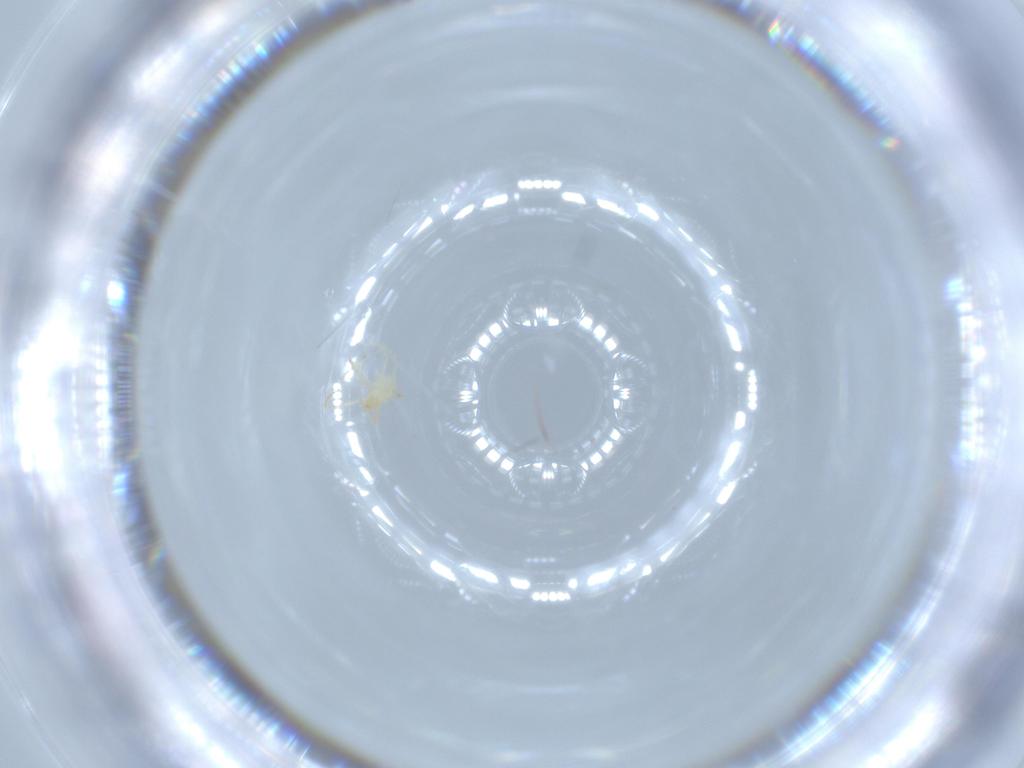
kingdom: Animalia
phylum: Arthropoda
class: Arachnida
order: Trombidiformes
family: Erythraeidae
